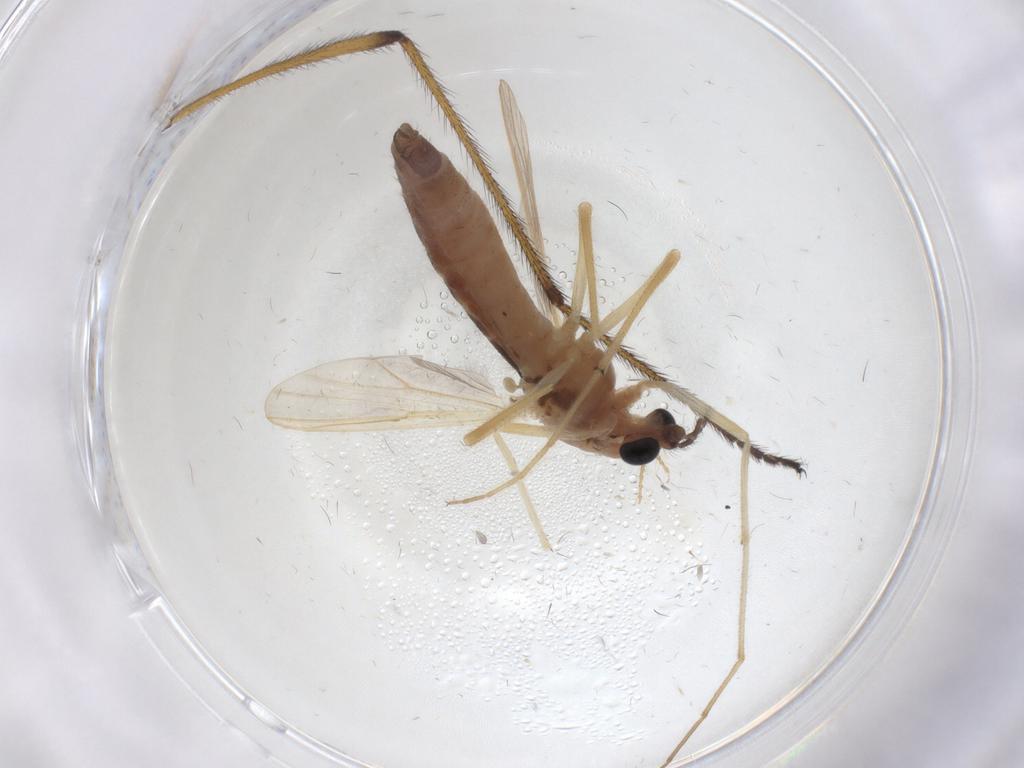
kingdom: Animalia
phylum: Arthropoda
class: Insecta
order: Diptera
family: Chironomidae
